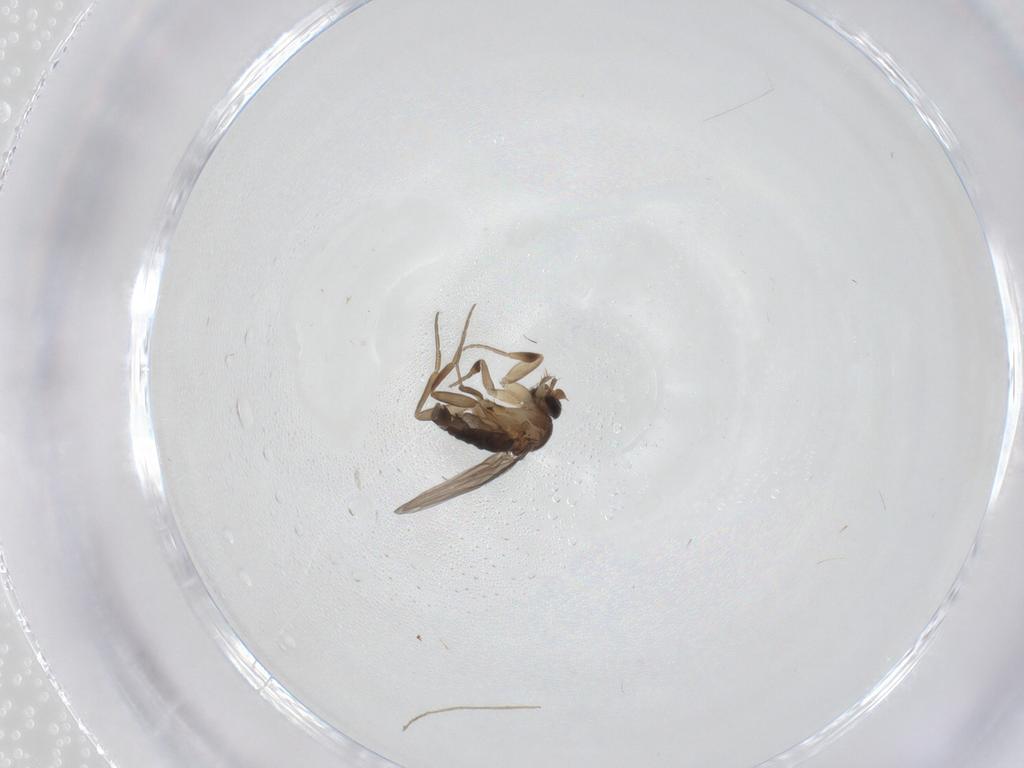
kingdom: Animalia
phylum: Arthropoda
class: Insecta
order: Diptera
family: Phoridae
